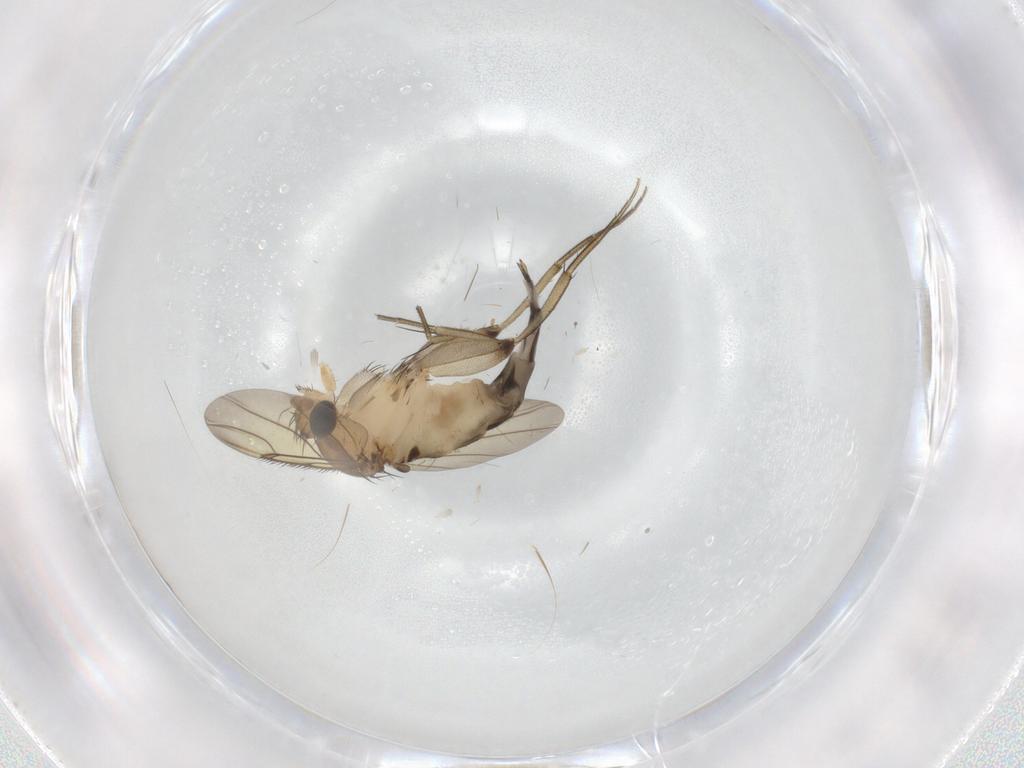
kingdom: Animalia
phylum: Arthropoda
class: Insecta
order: Diptera
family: Phoridae
